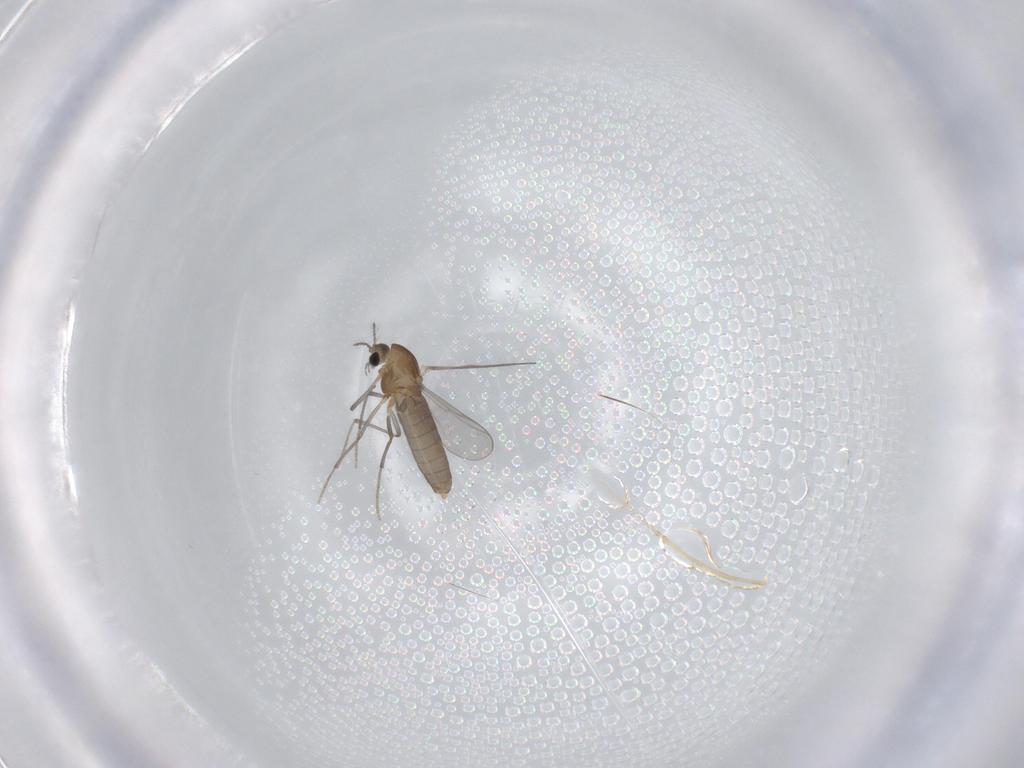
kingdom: Animalia
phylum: Arthropoda
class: Insecta
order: Diptera
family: Chironomidae
